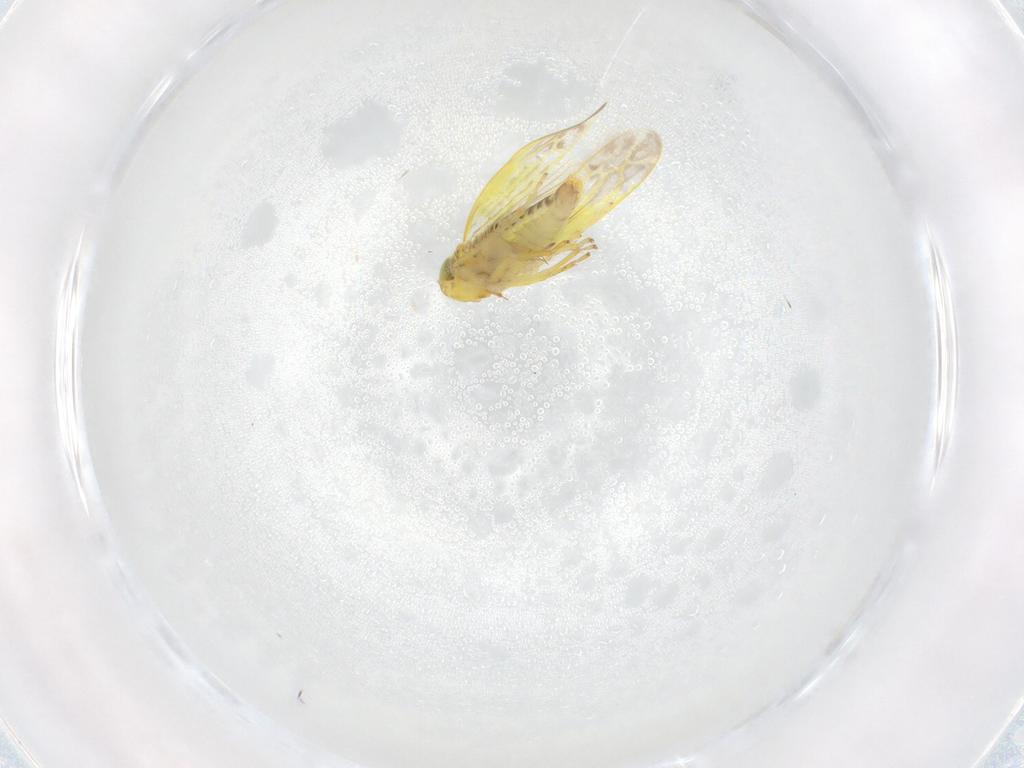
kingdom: Animalia
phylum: Arthropoda
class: Insecta
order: Hemiptera
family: Cicadellidae
